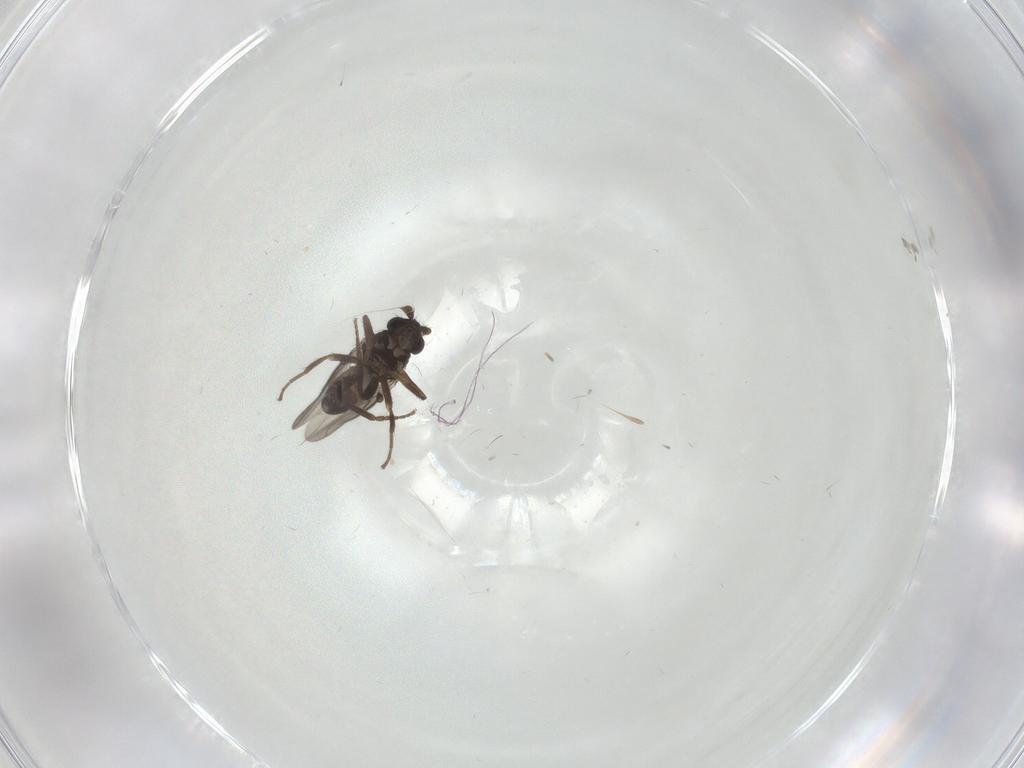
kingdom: Animalia
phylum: Arthropoda
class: Insecta
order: Diptera
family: Sphaeroceridae
